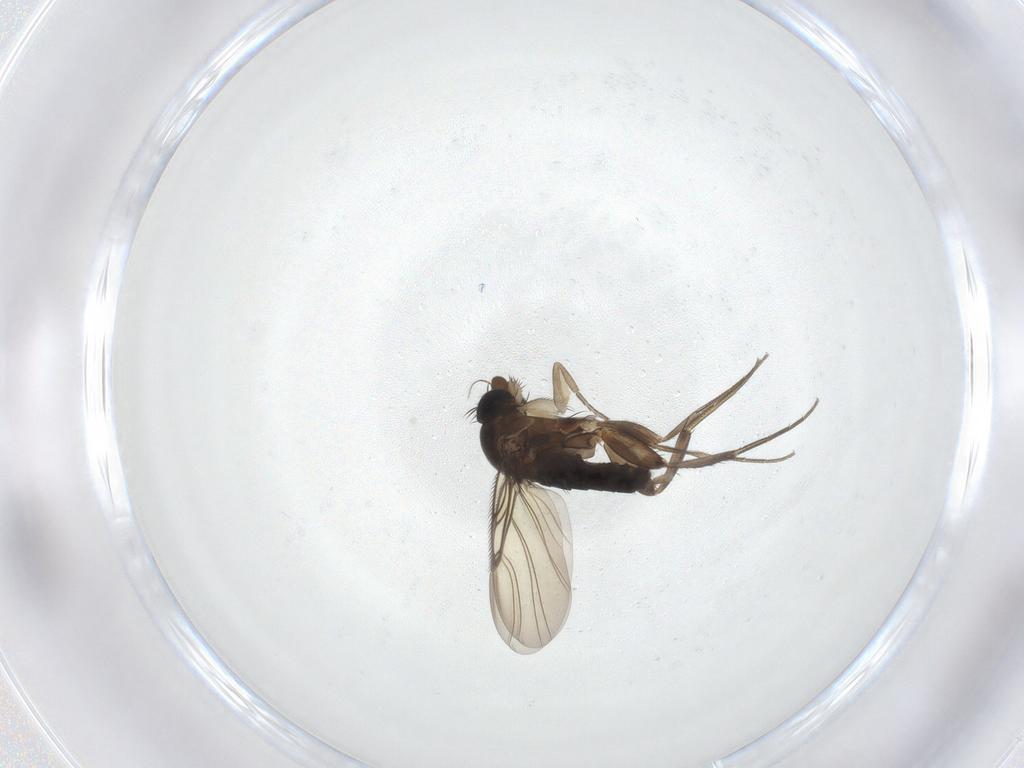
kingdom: Animalia
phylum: Arthropoda
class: Insecta
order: Diptera
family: Phoridae
